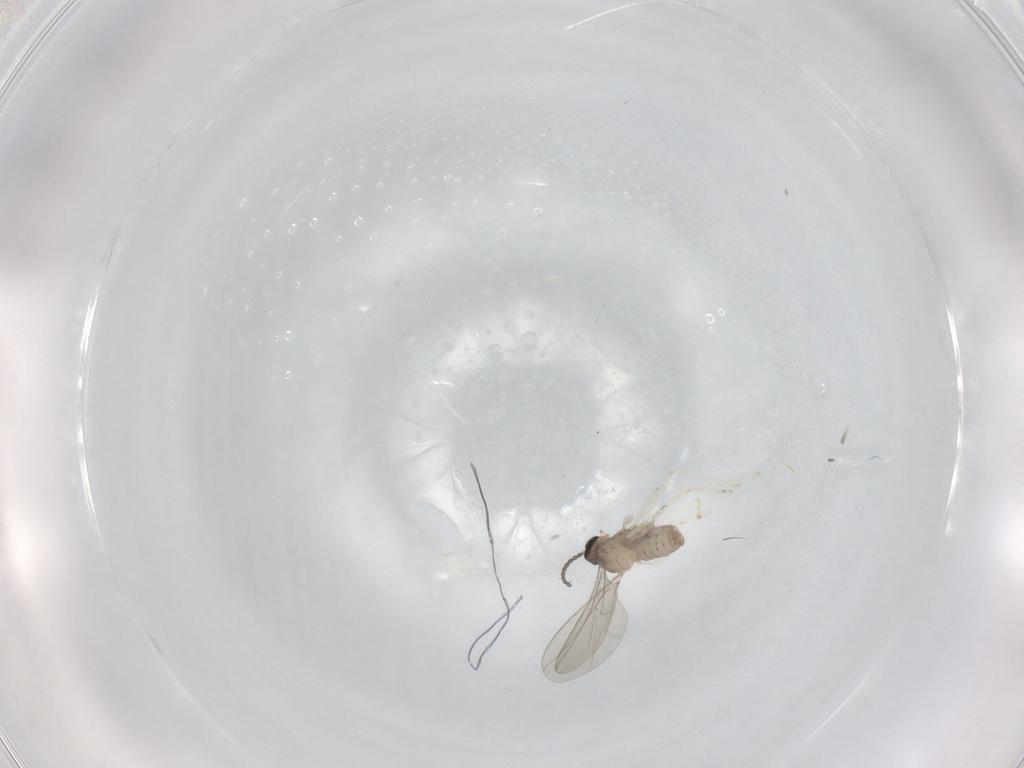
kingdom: Animalia
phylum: Arthropoda
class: Insecta
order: Diptera
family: Cecidomyiidae
